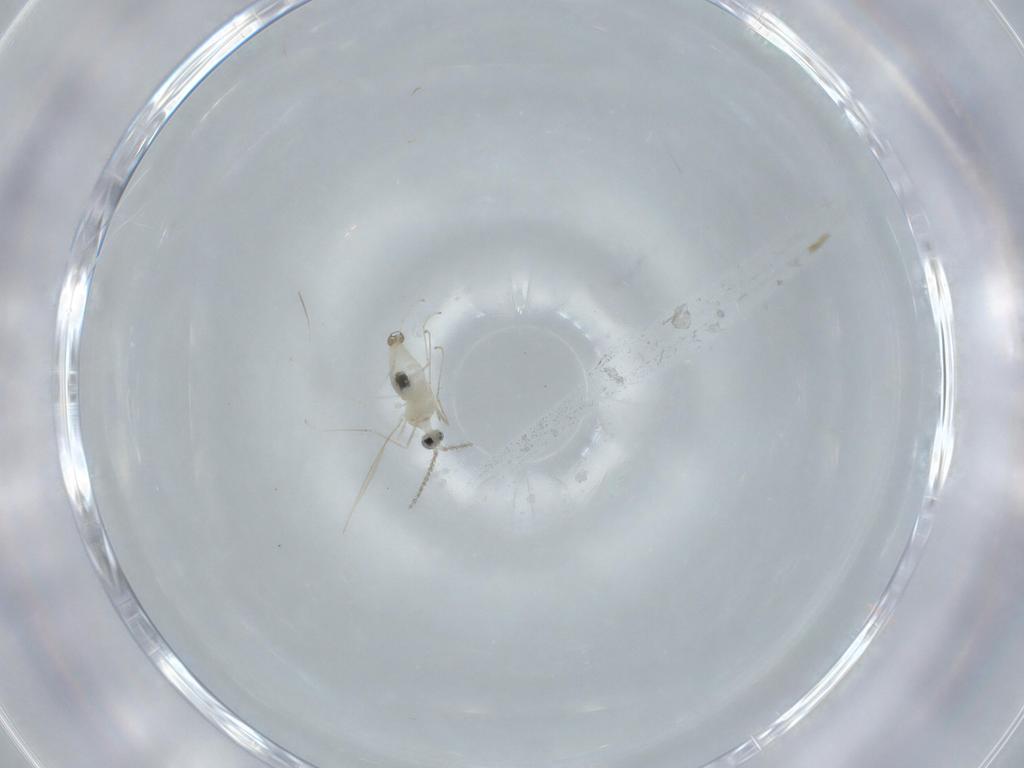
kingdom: Animalia
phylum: Arthropoda
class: Insecta
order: Diptera
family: Cecidomyiidae
